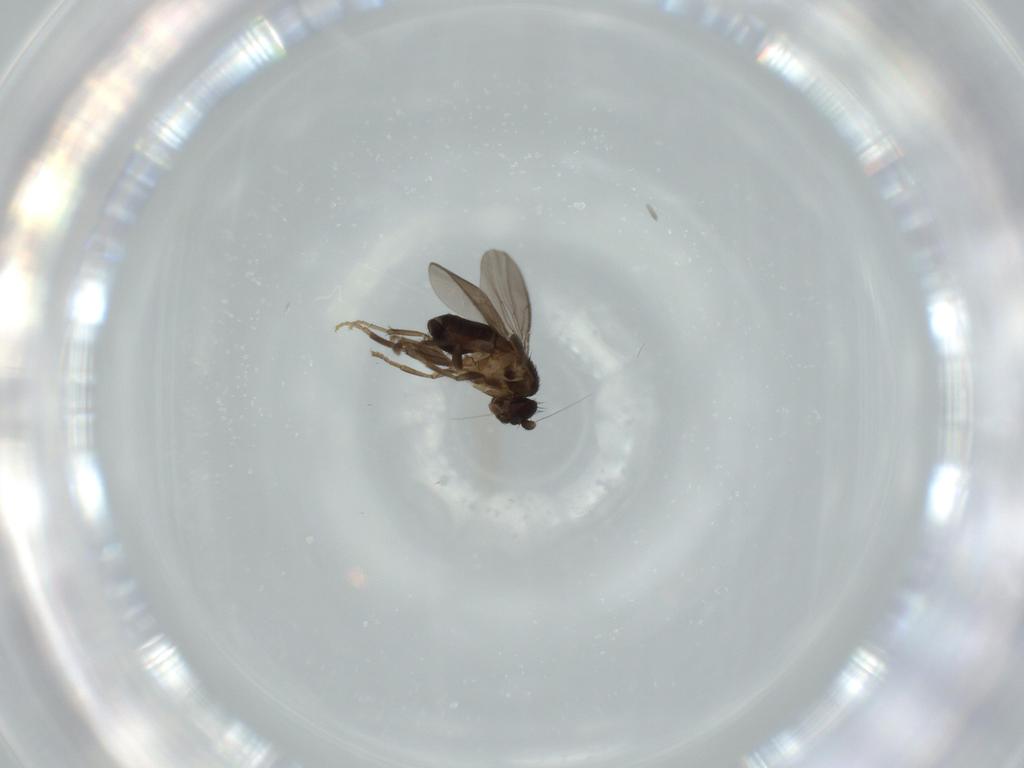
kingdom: Animalia
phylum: Arthropoda
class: Insecta
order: Diptera
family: Sphaeroceridae
